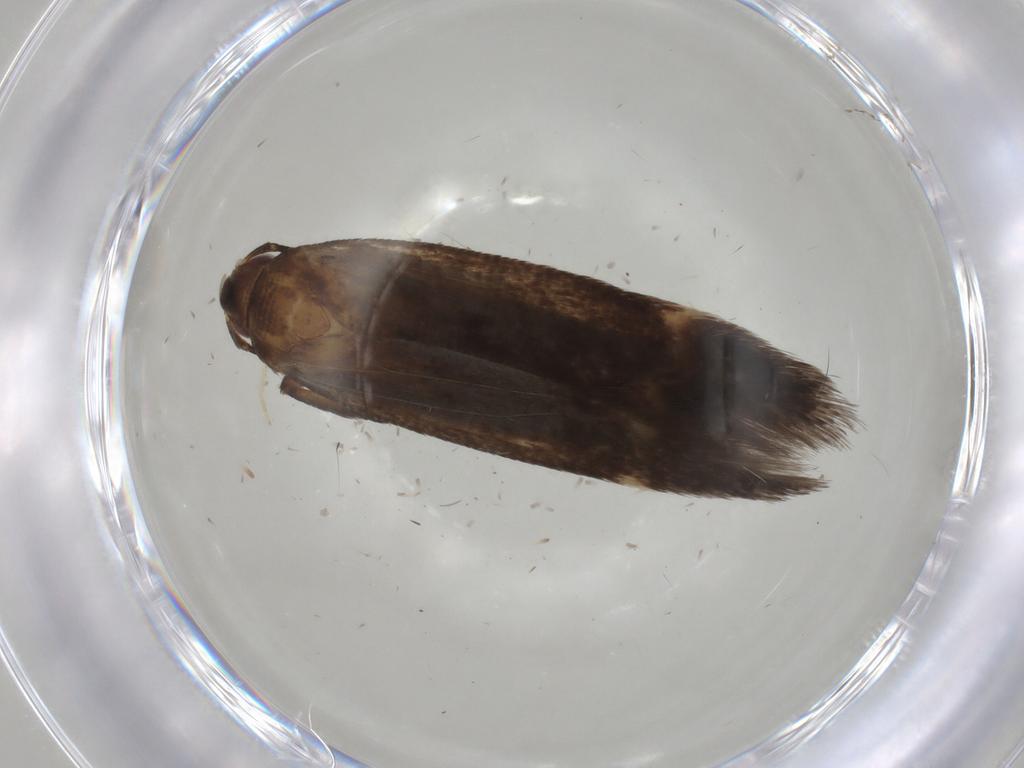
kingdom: Animalia
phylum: Arthropoda
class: Insecta
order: Lepidoptera
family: Gelechiidae
